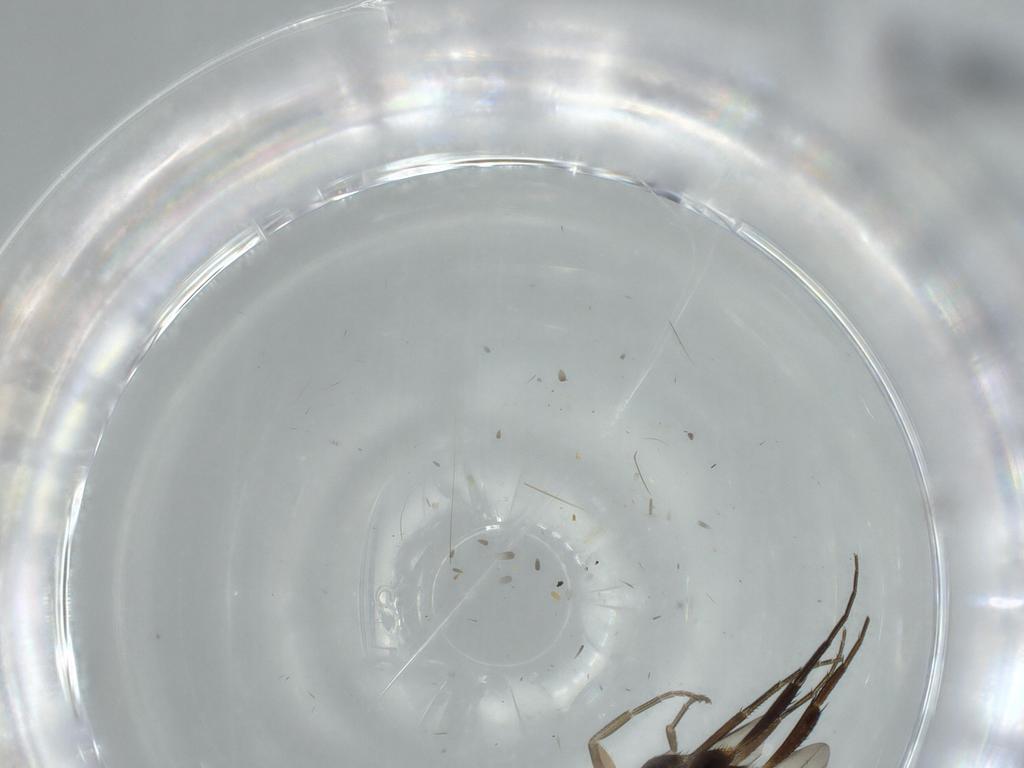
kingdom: Animalia
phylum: Arthropoda
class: Insecta
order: Diptera
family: Phoridae
